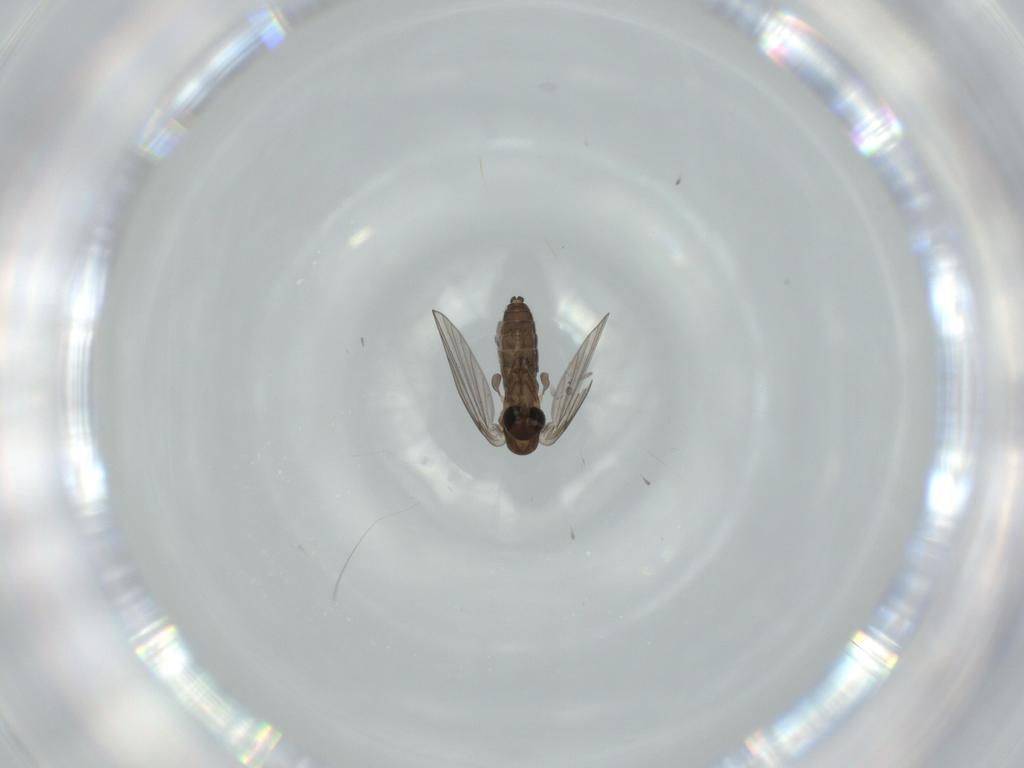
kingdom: Animalia
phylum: Arthropoda
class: Insecta
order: Diptera
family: Psychodidae
